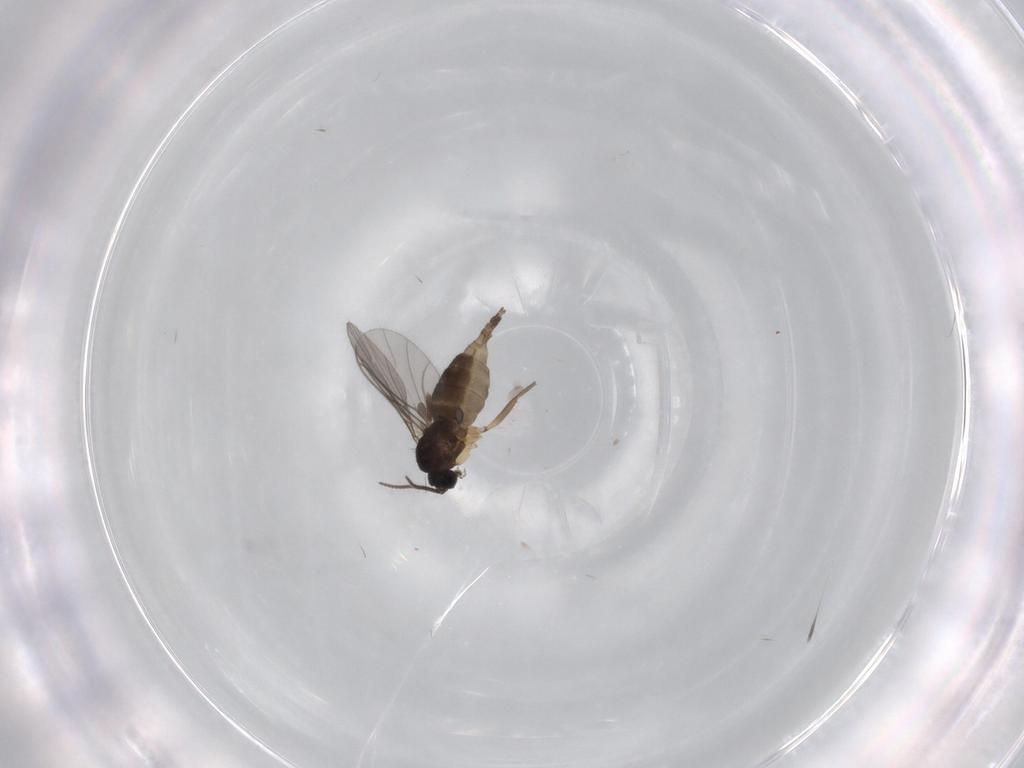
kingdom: Animalia
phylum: Arthropoda
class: Insecta
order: Diptera
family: Sciaridae
